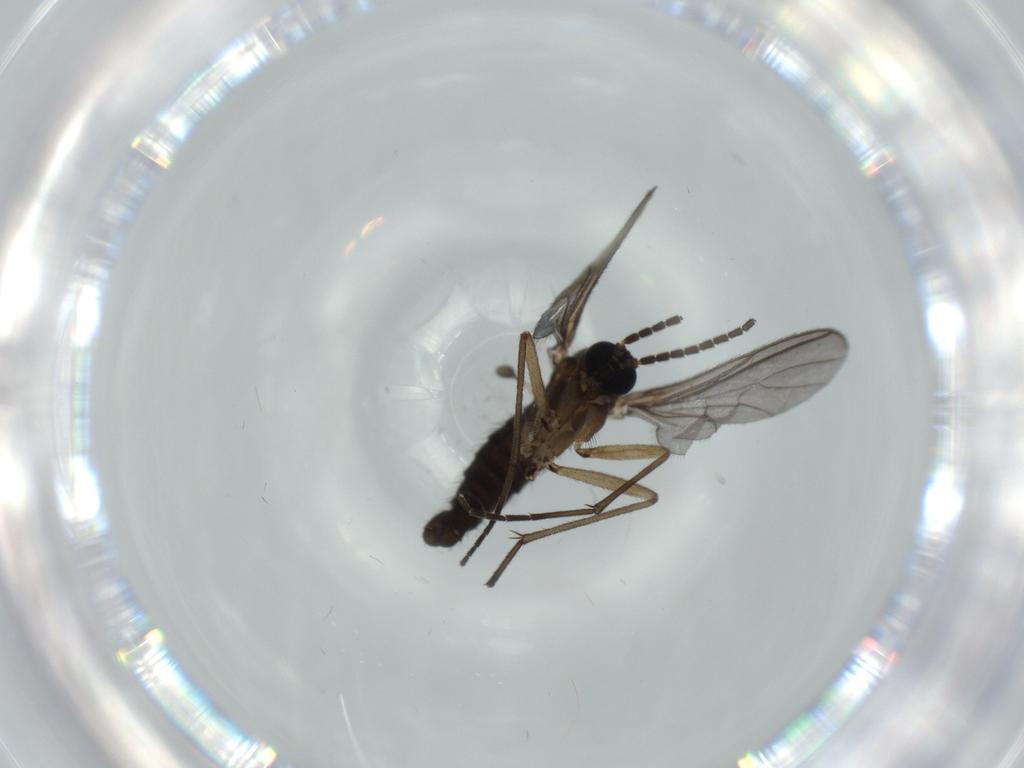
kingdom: Animalia
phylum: Arthropoda
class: Insecta
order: Diptera
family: Sciaridae
